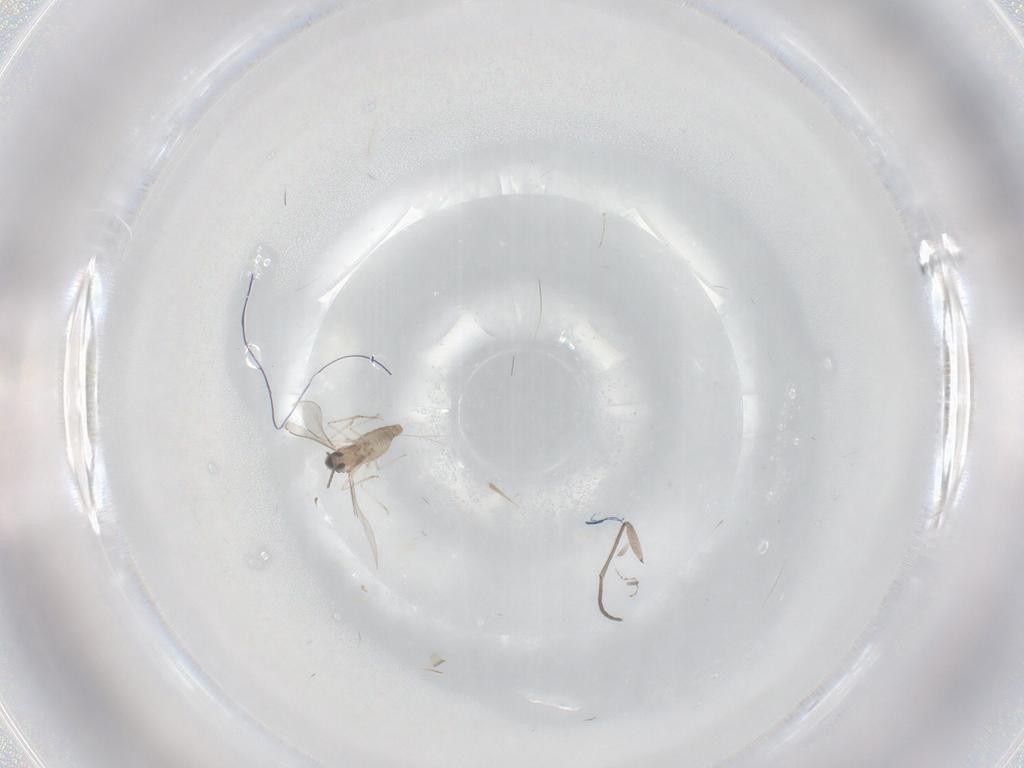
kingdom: Animalia
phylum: Arthropoda
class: Insecta
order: Diptera
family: Cecidomyiidae
